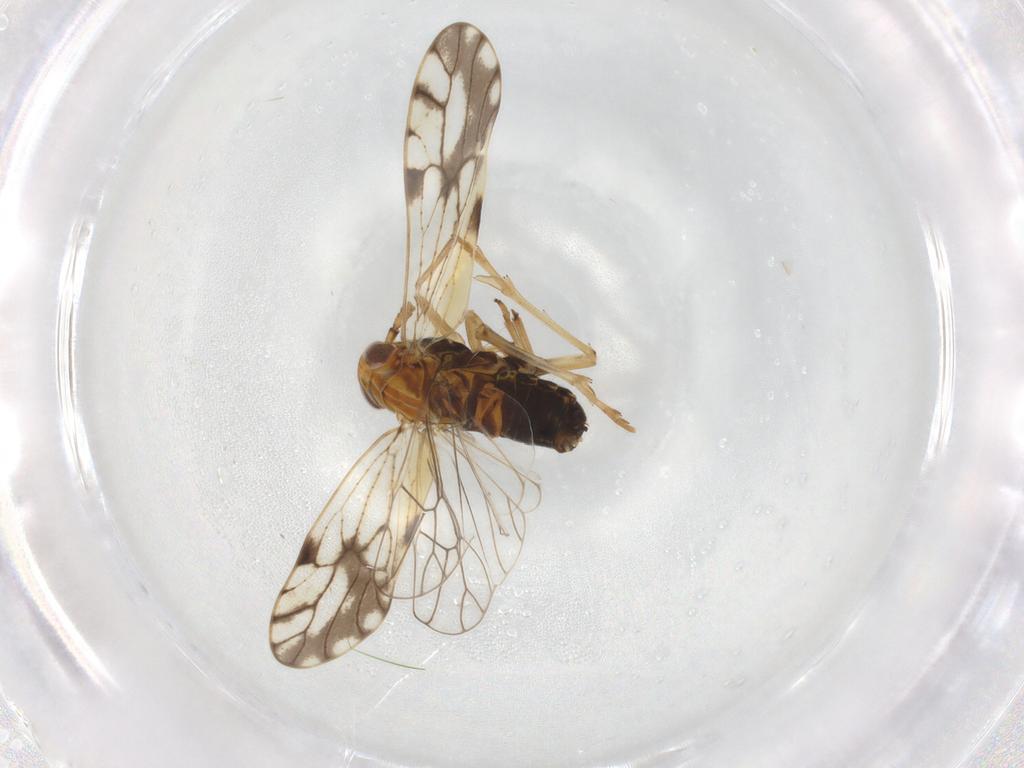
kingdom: Animalia
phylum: Arthropoda
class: Insecta
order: Hemiptera
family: Delphacidae
